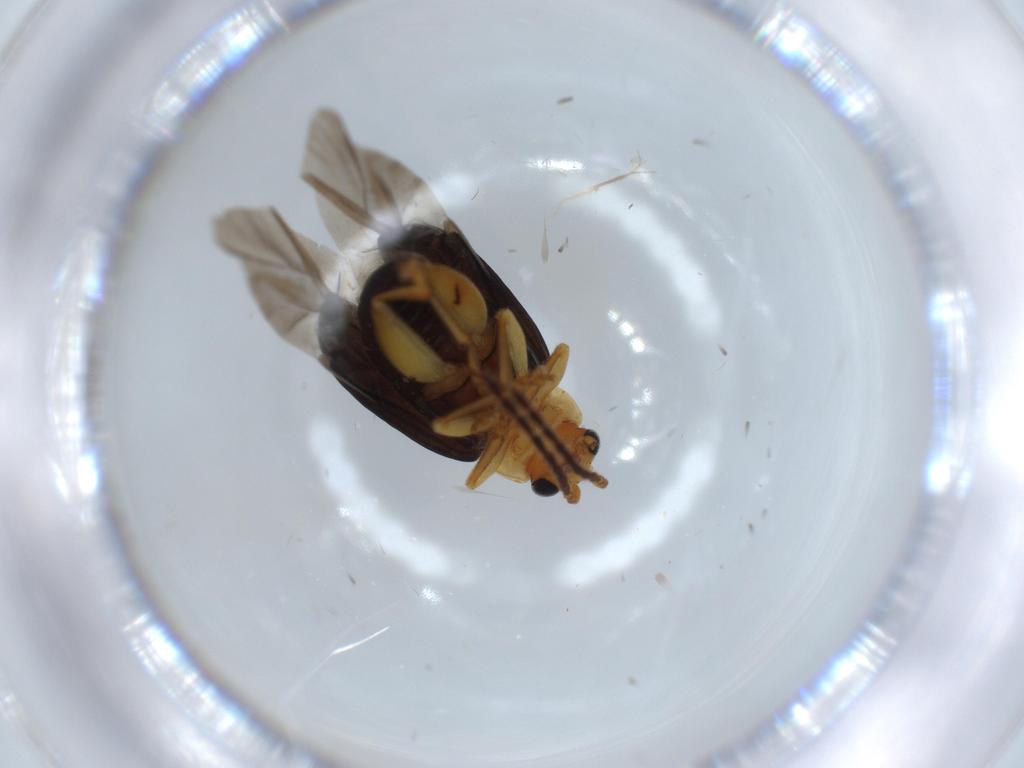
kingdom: Animalia
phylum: Arthropoda
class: Insecta
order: Coleoptera
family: Chrysomelidae
